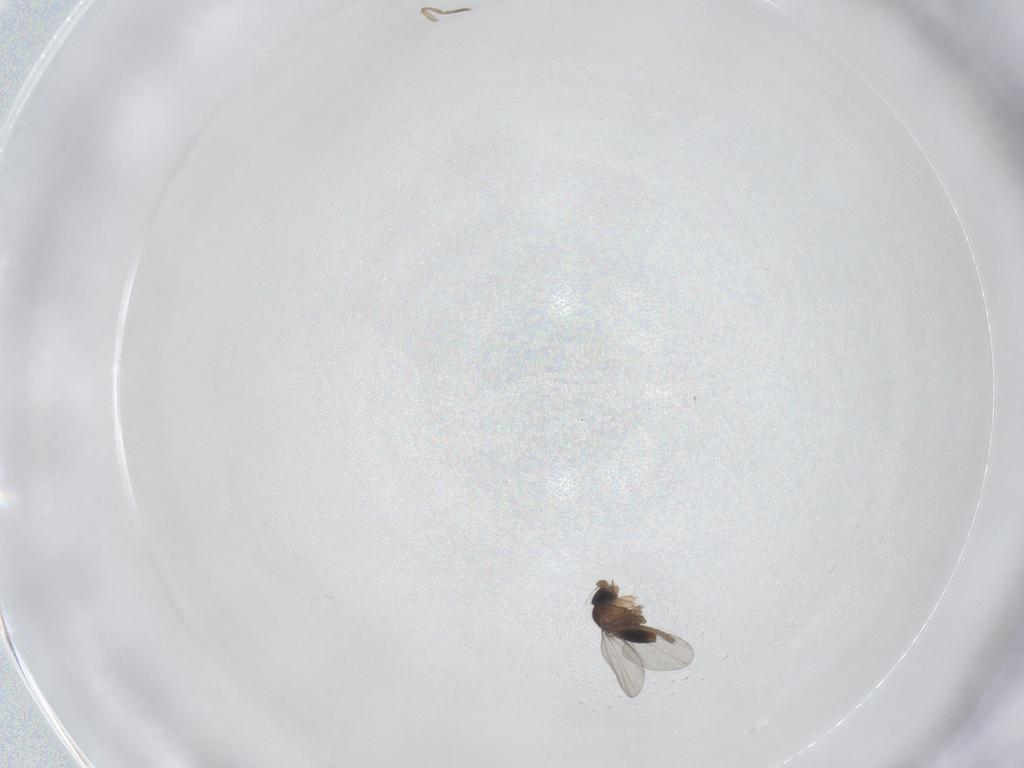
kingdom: Animalia
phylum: Arthropoda
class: Insecta
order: Diptera
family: Phoridae
